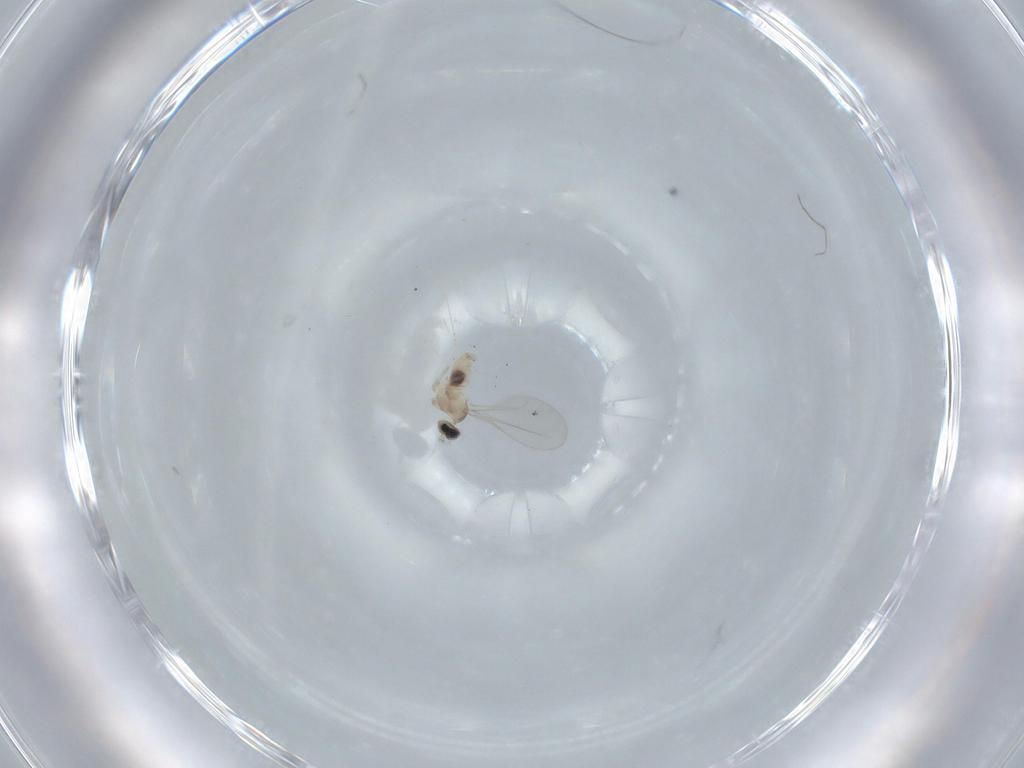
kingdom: Animalia
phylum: Arthropoda
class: Insecta
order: Diptera
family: Cecidomyiidae
